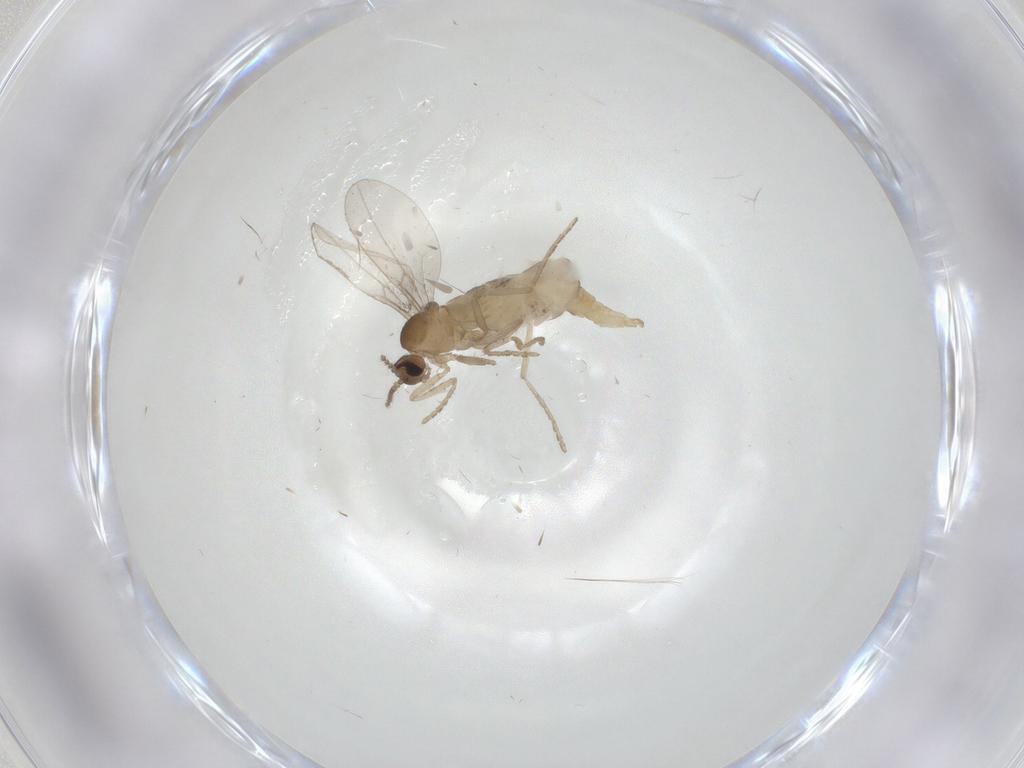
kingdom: Animalia
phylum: Arthropoda
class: Insecta
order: Diptera
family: Cecidomyiidae
